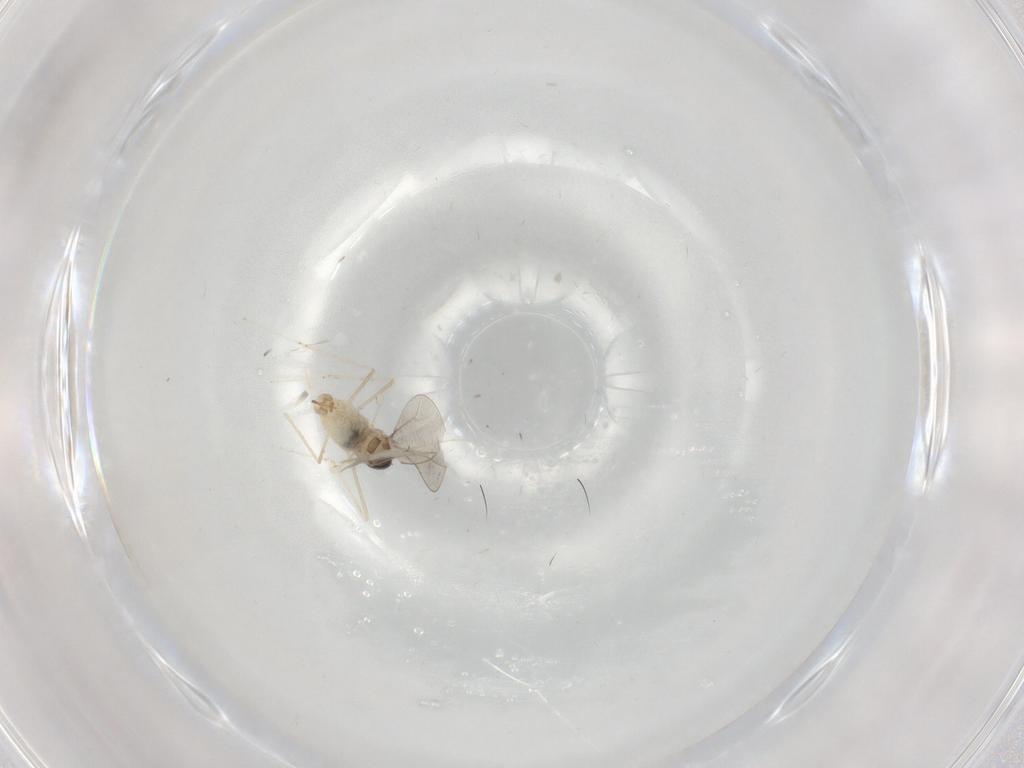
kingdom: Animalia
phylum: Arthropoda
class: Insecta
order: Diptera
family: Cecidomyiidae
